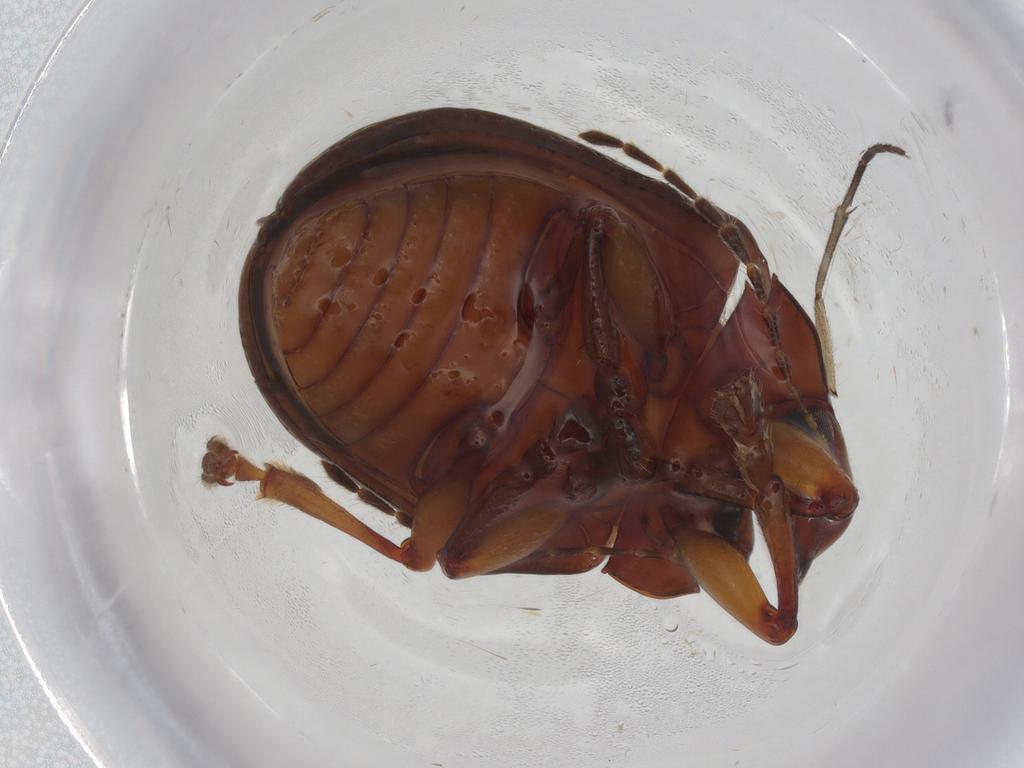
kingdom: Animalia
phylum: Arthropoda
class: Insecta
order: Coleoptera
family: Chrysomelidae
